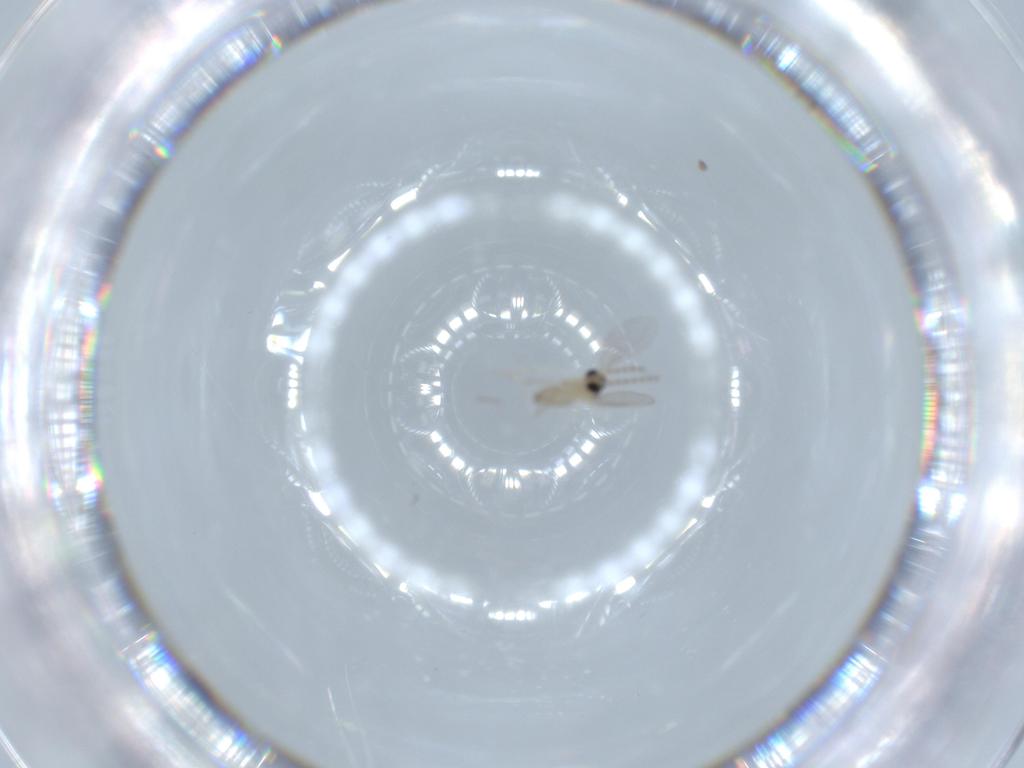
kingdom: Animalia
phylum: Arthropoda
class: Insecta
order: Diptera
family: Cecidomyiidae
